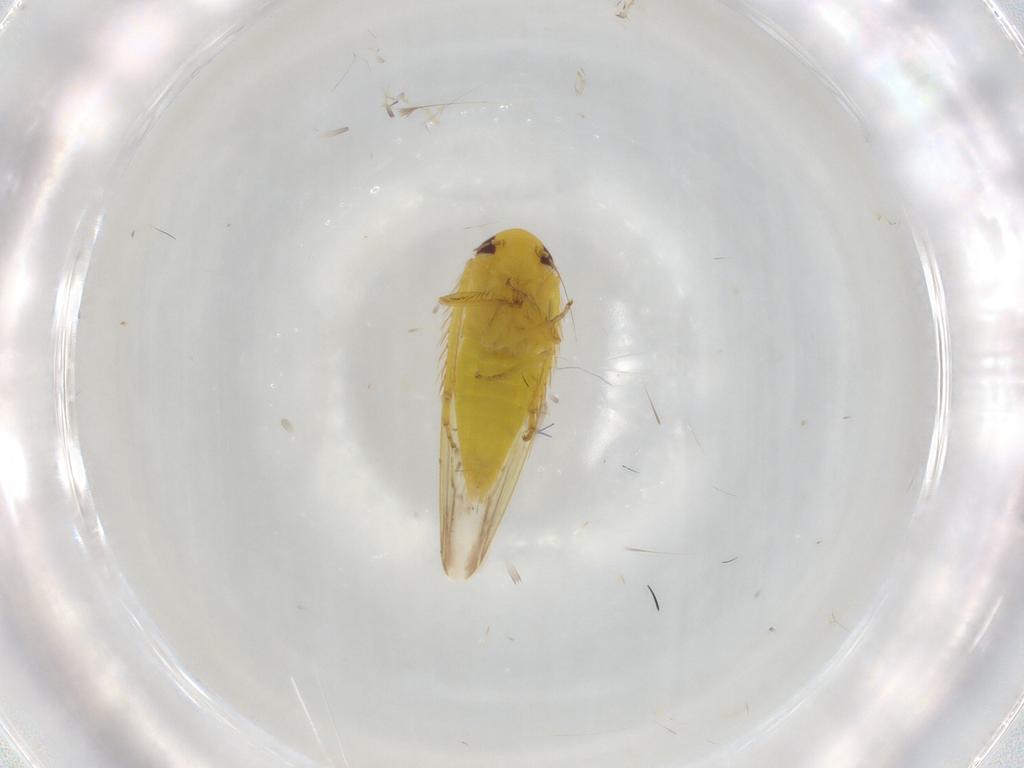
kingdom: Animalia
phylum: Arthropoda
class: Insecta
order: Hemiptera
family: Cicadellidae
